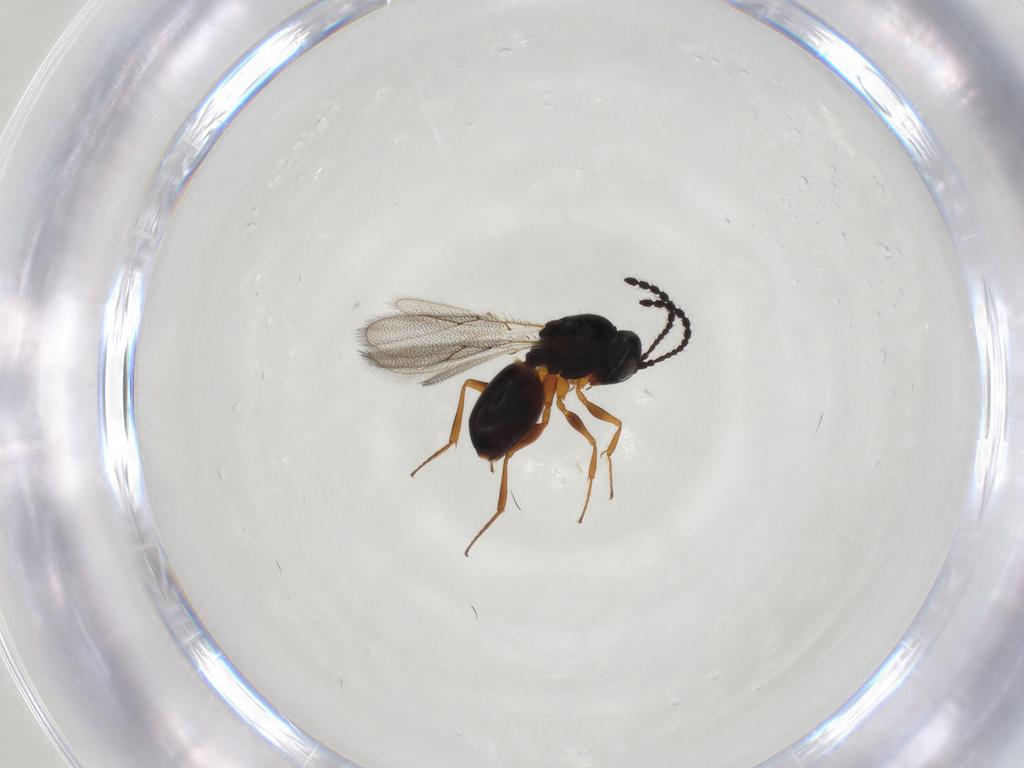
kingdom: Animalia
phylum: Arthropoda
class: Insecta
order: Hymenoptera
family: Figitidae
